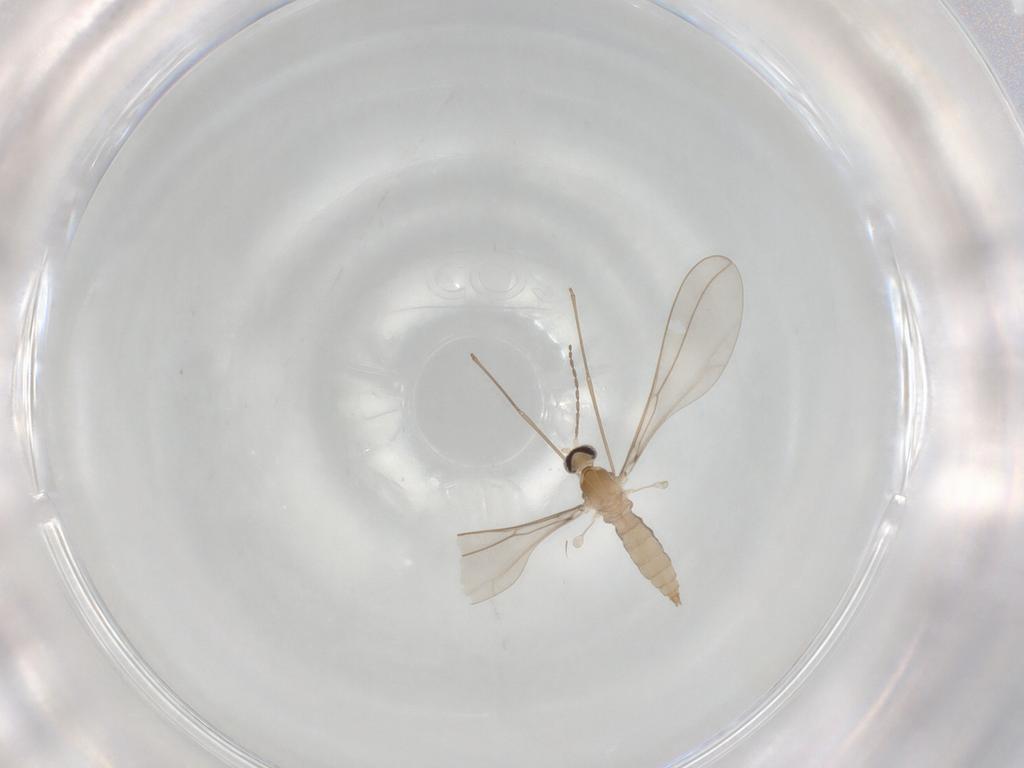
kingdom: Animalia
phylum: Arthropoda
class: Insecta
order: Diptera
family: Cecidomyiidae
